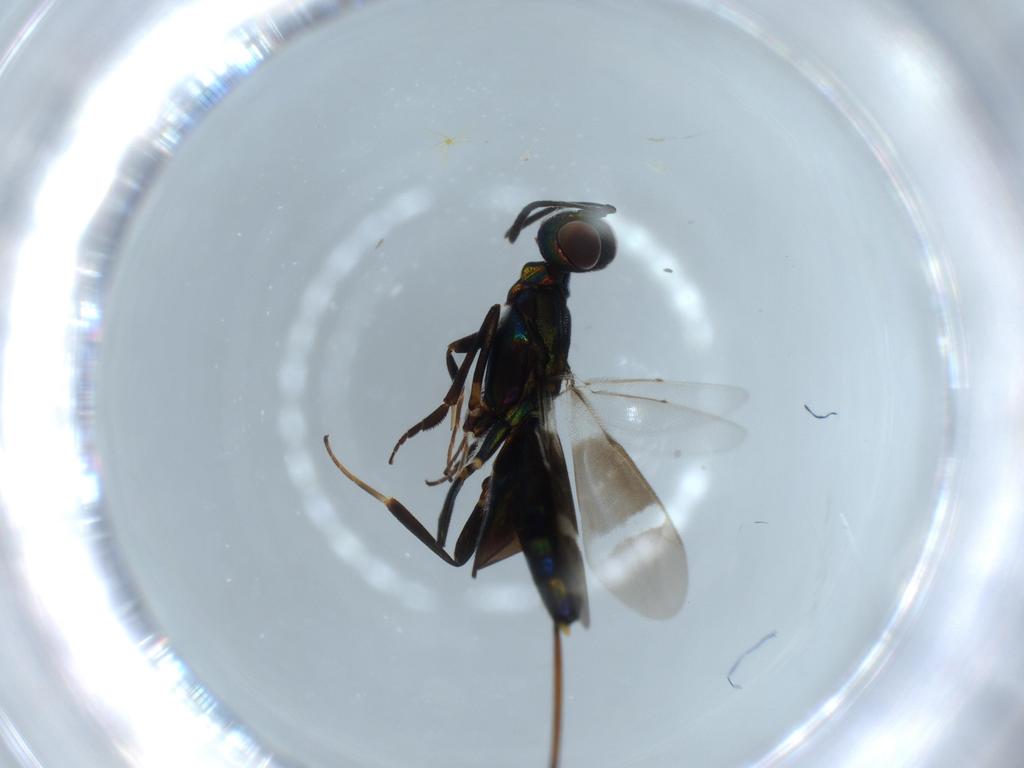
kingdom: Animalia
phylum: Arthropoda
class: Insecta
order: Hymenoptera
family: Eupelmidae
